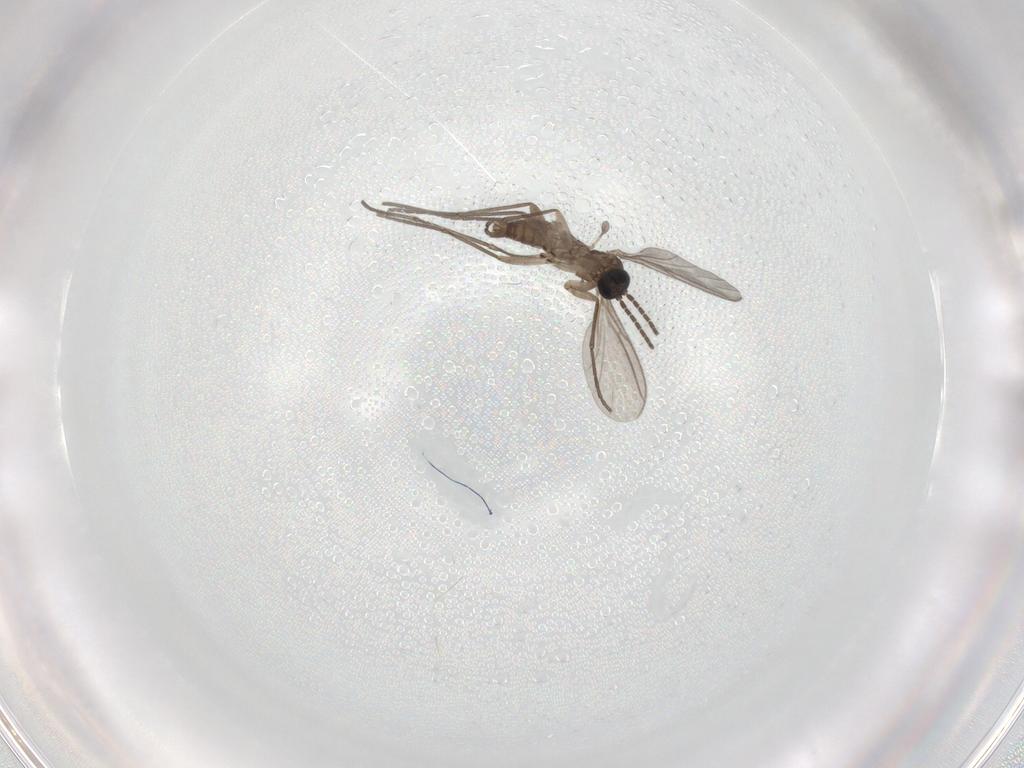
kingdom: Animalia
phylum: Arthropoda
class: Insecta
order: Diptera
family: Sciaridae
